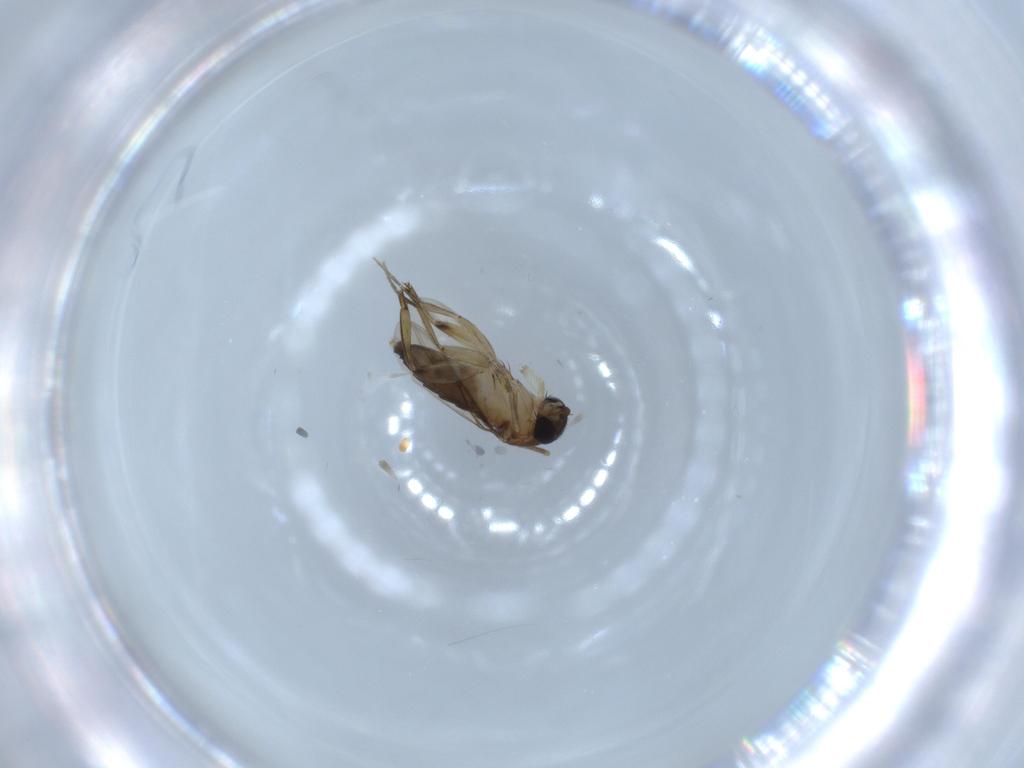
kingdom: Animalia
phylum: Arthropoda
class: Insecta
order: Diptera
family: Phoridae
